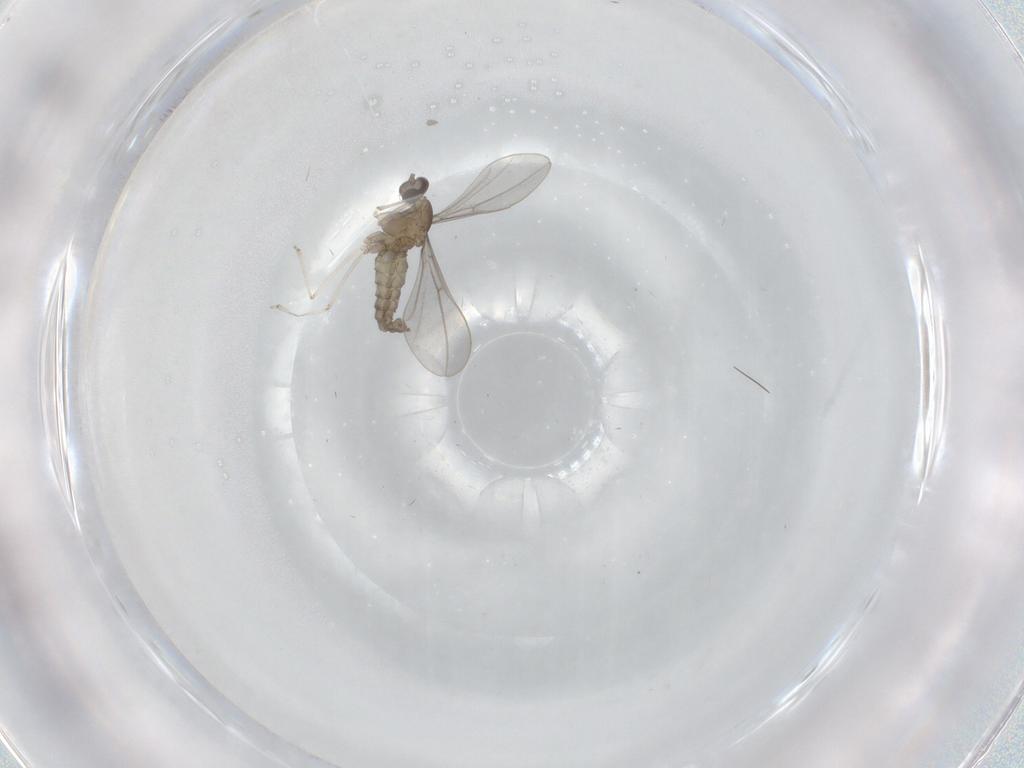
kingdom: Animalia
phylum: Arthropoda
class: Insecta
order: Diptera
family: Cecidomyiidae
